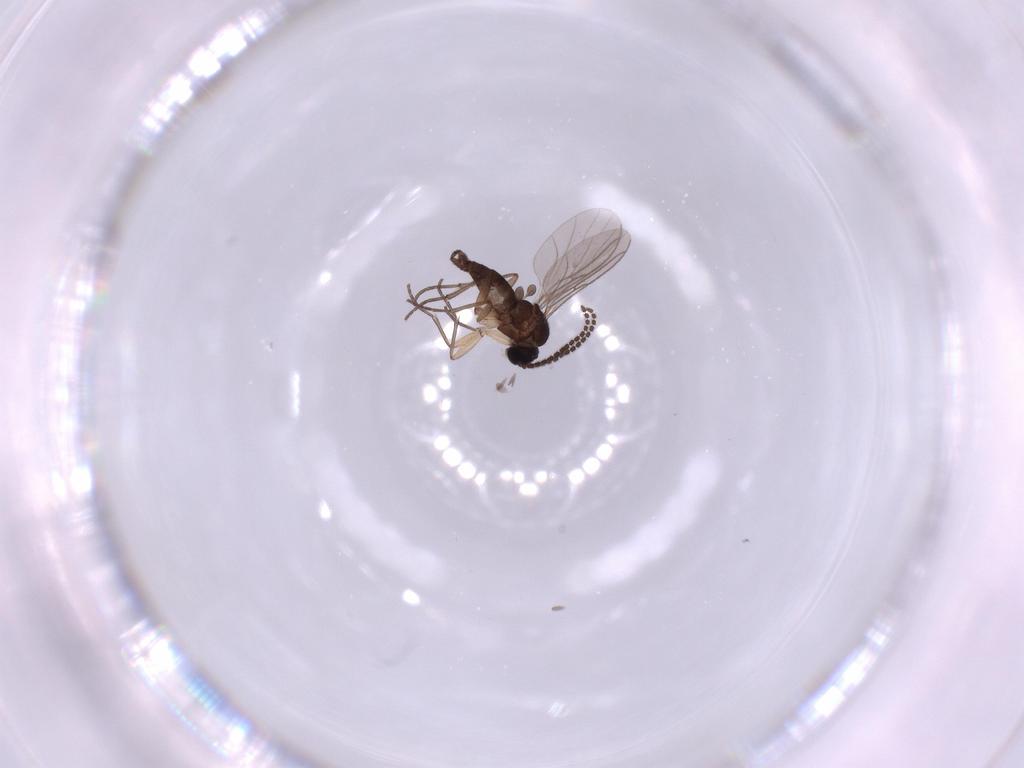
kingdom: Animalia
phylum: Arthropoda
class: Insecta
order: Diptera
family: Sciaridae
